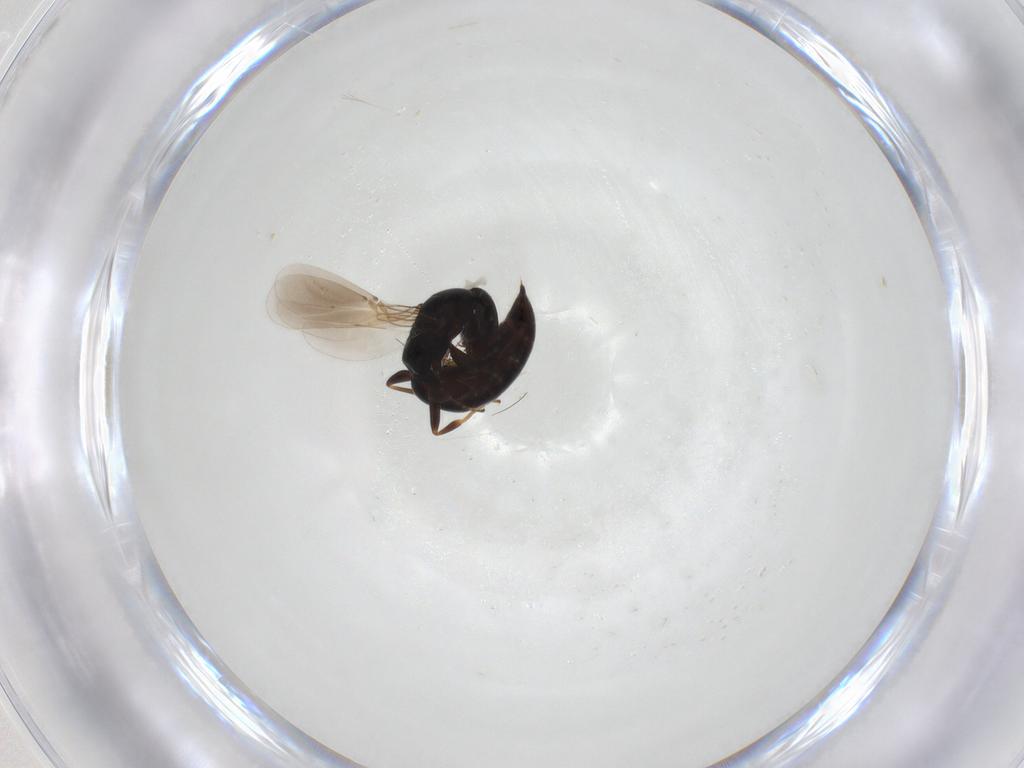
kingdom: Animalia
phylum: Arthropoda
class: Insecta
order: Hymenoptera
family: Bethylidae
